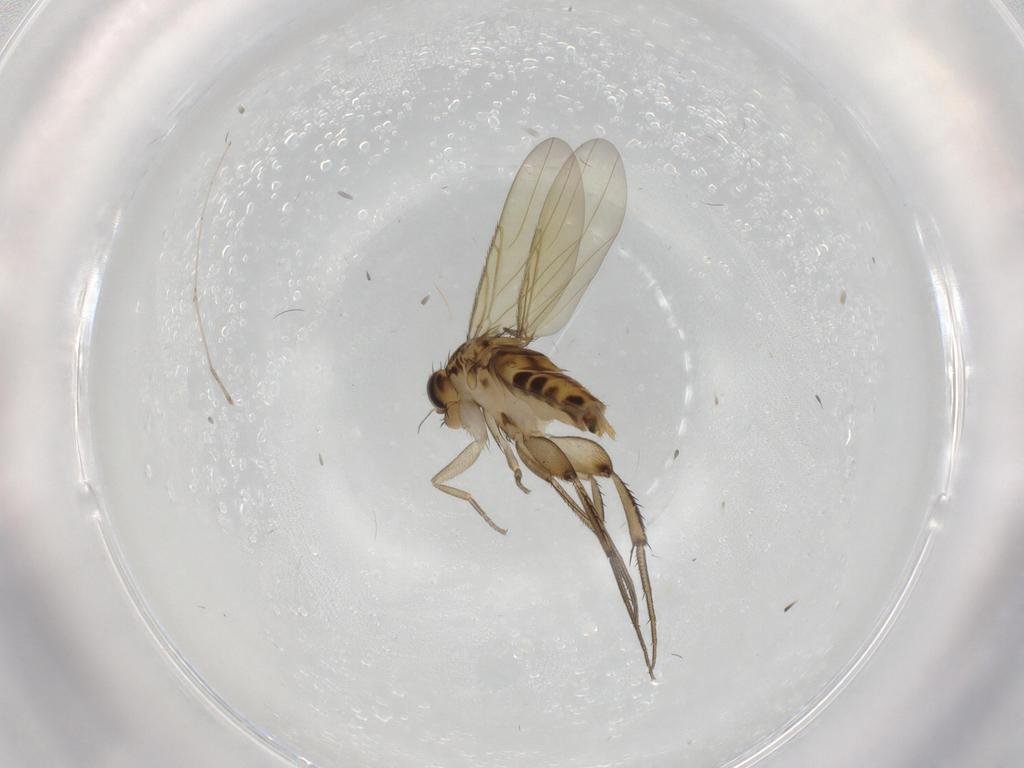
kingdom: Animalia
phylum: Arthropoda
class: Insecta
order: Diptera
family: Phoridae
